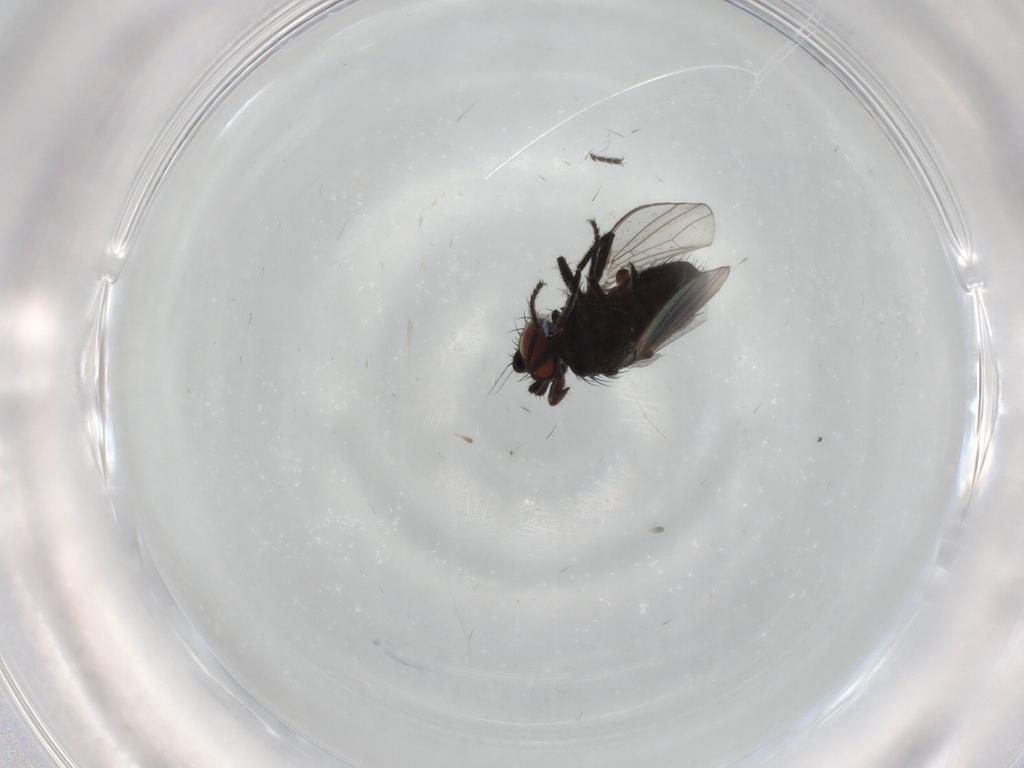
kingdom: Animalia
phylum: Arthropoda
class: Insecta
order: Diptera
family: Milichiidae
